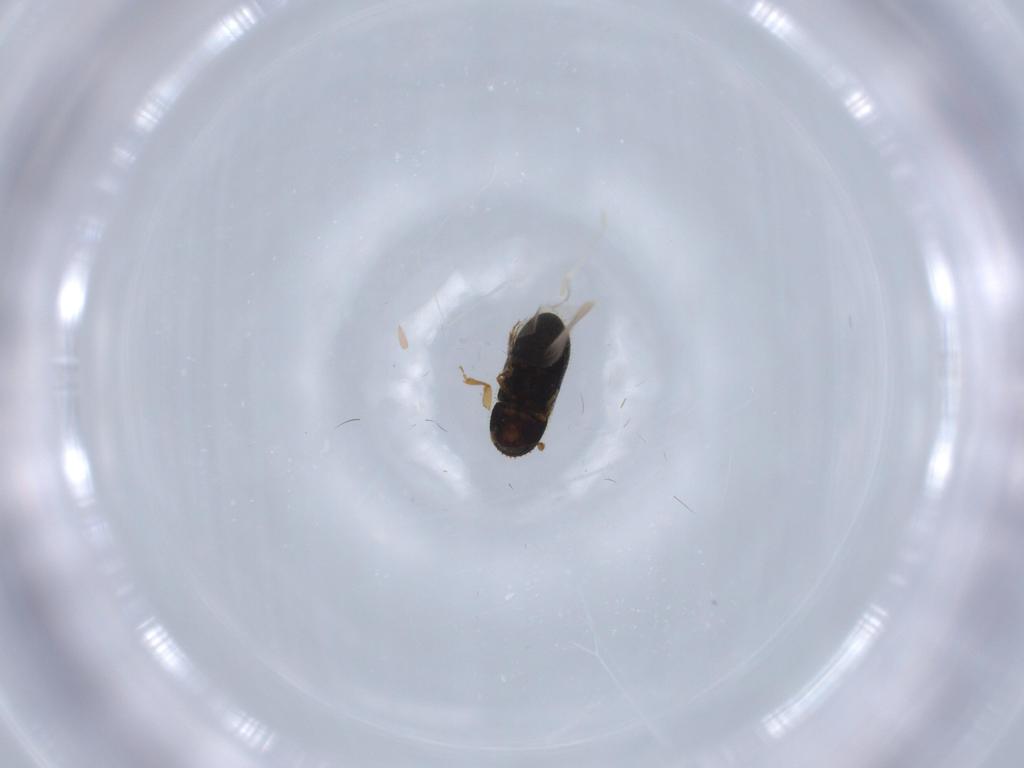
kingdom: Animalia
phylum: Arthropoda
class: Insecta
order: Coleoptera
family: Curculionidae
